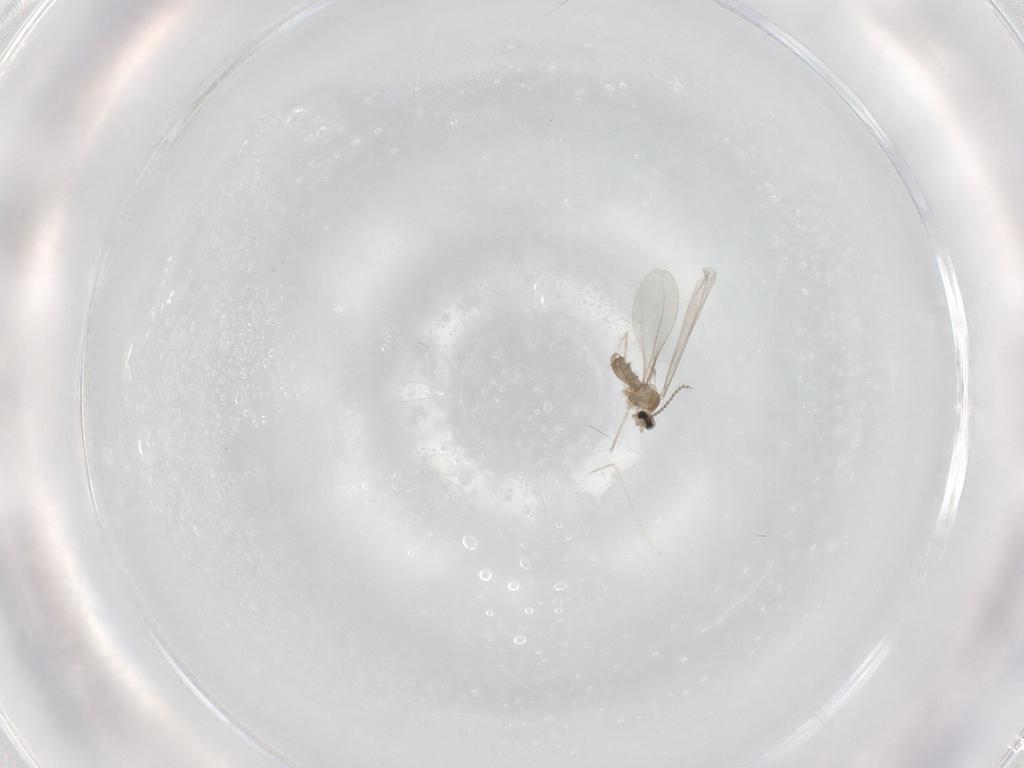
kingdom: Animalia
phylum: Arthropoda
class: Insecta
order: Diptera
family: Cecidomyiidae
